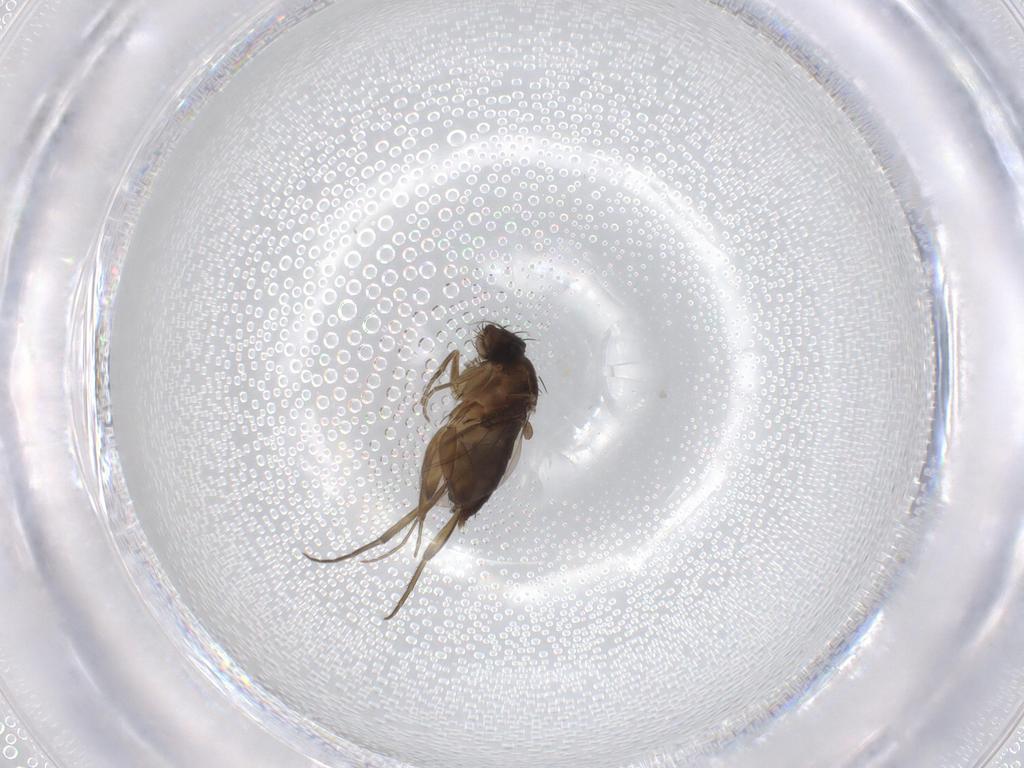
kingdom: Animalia
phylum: Arthropoda
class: Insecta
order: Diptera
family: Phoridae
